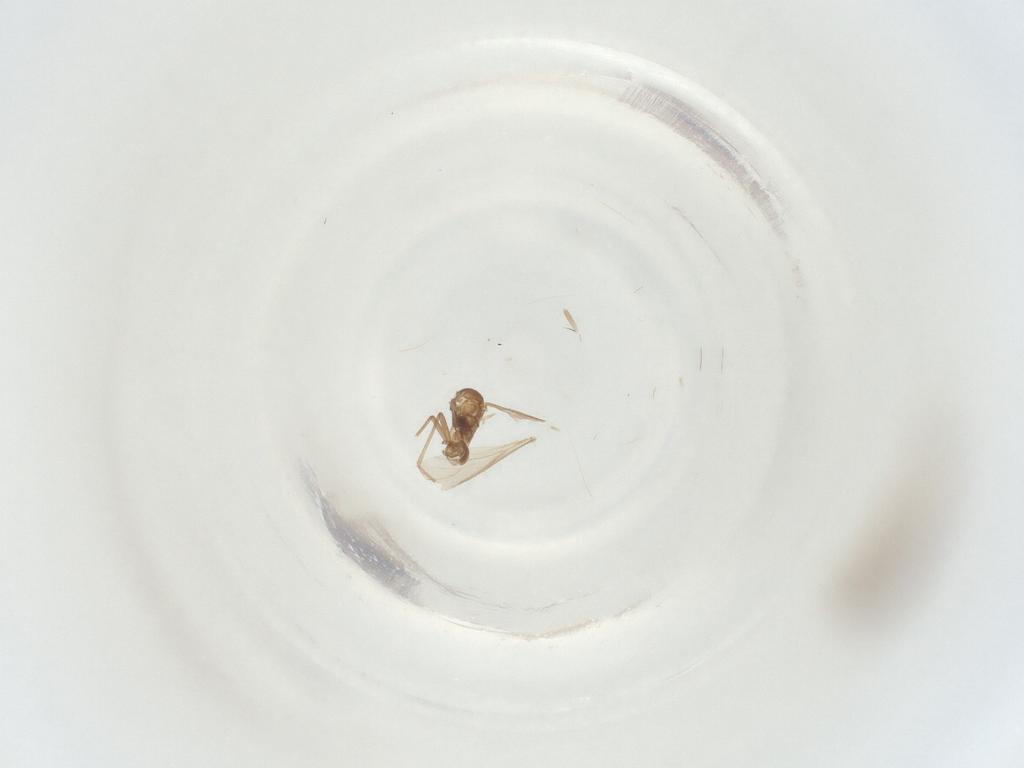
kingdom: Animalia
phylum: Arthropoda
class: Insecta
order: Diptera
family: Sciaridae
